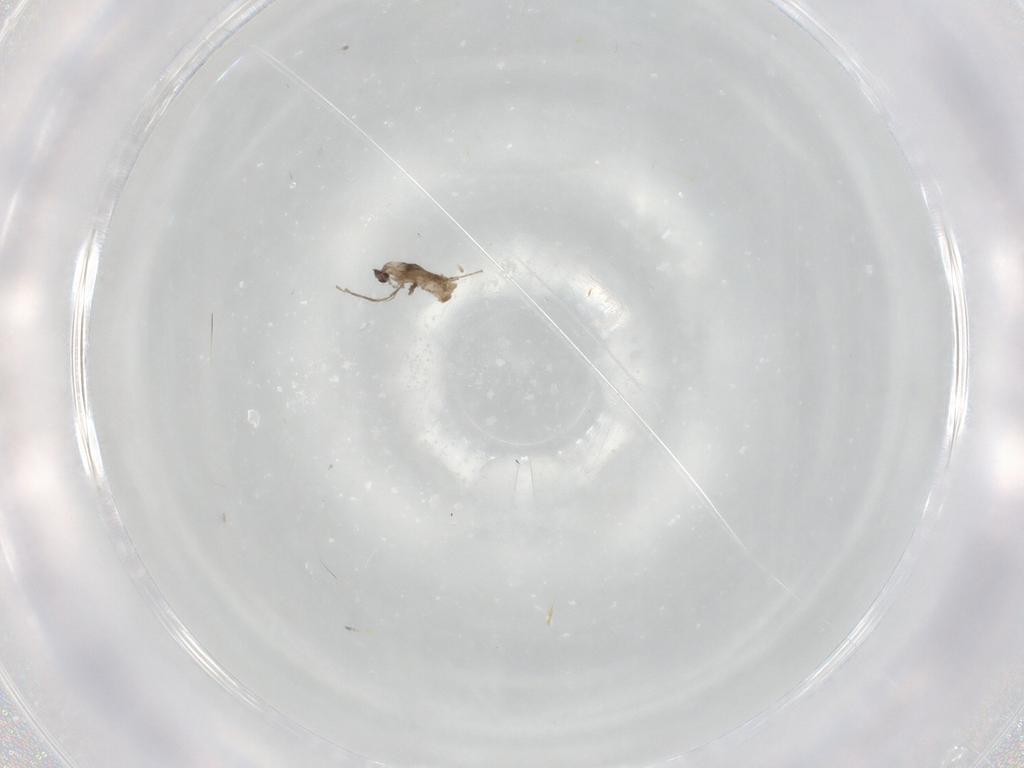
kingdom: Animalia
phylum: Arthropoda
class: Insecta
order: Diptera
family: Cecidomyiidae
